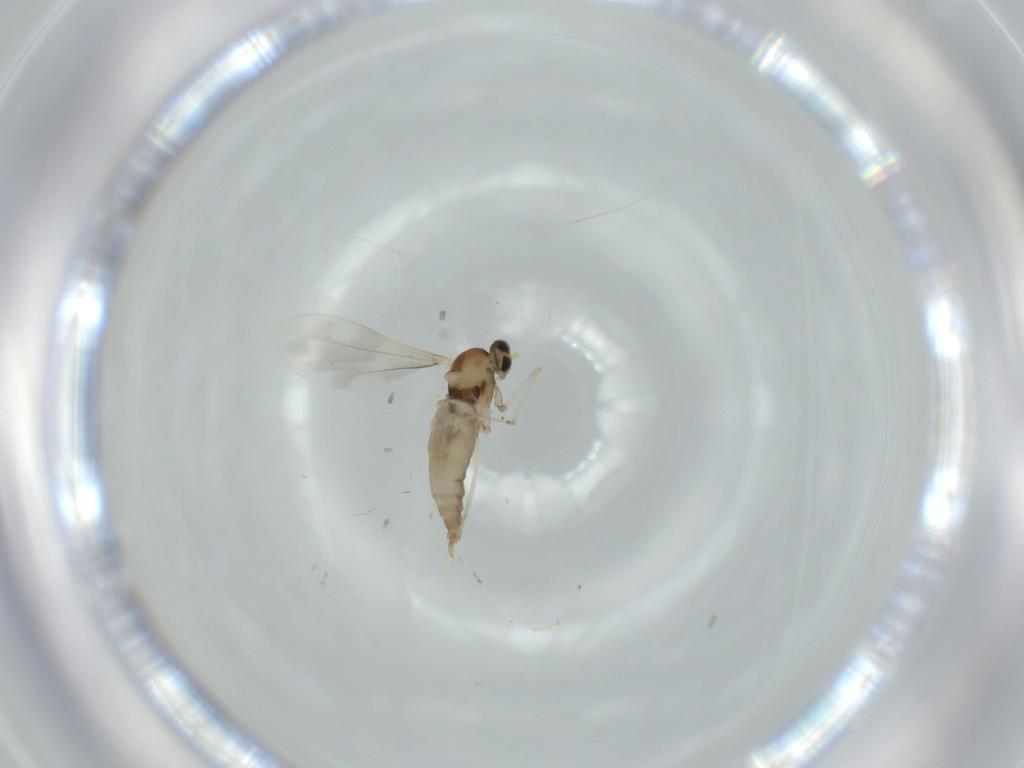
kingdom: Animalia
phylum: Arthropoda
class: Insecta
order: Diptera
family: Cecidomyiidae
